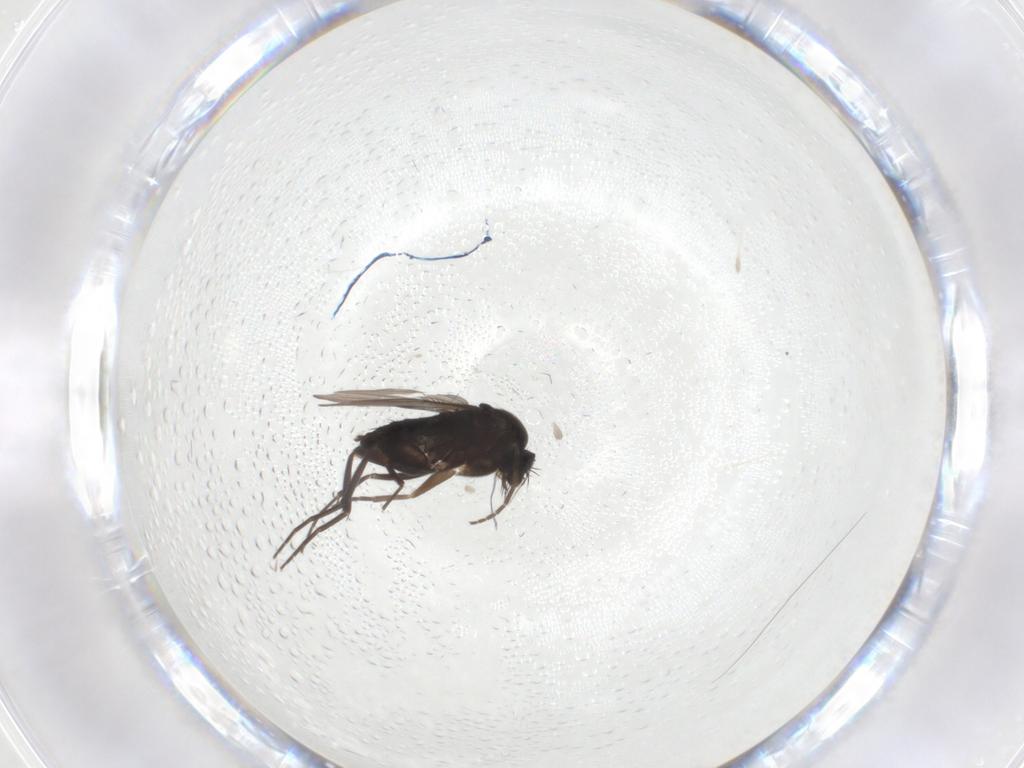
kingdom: Animalia
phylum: Arthropoda
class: Insecta
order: Diptera
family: Phoridae
